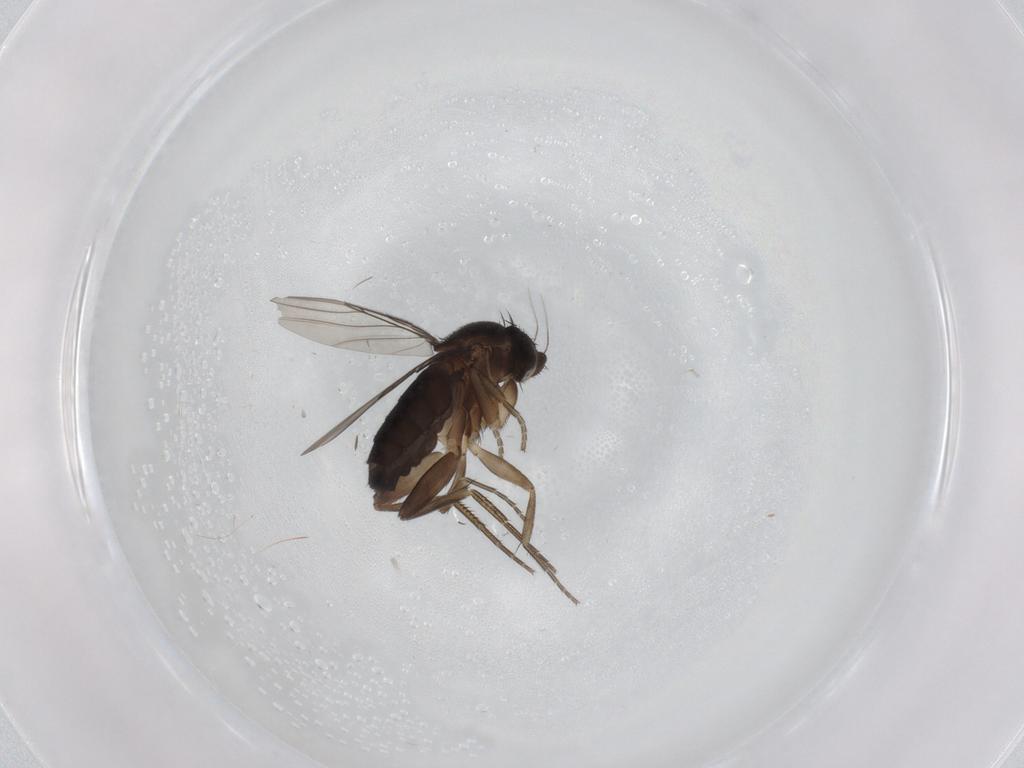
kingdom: Animalia
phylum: Arthropoda
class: Insecta
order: Diptera
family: Phoridae
